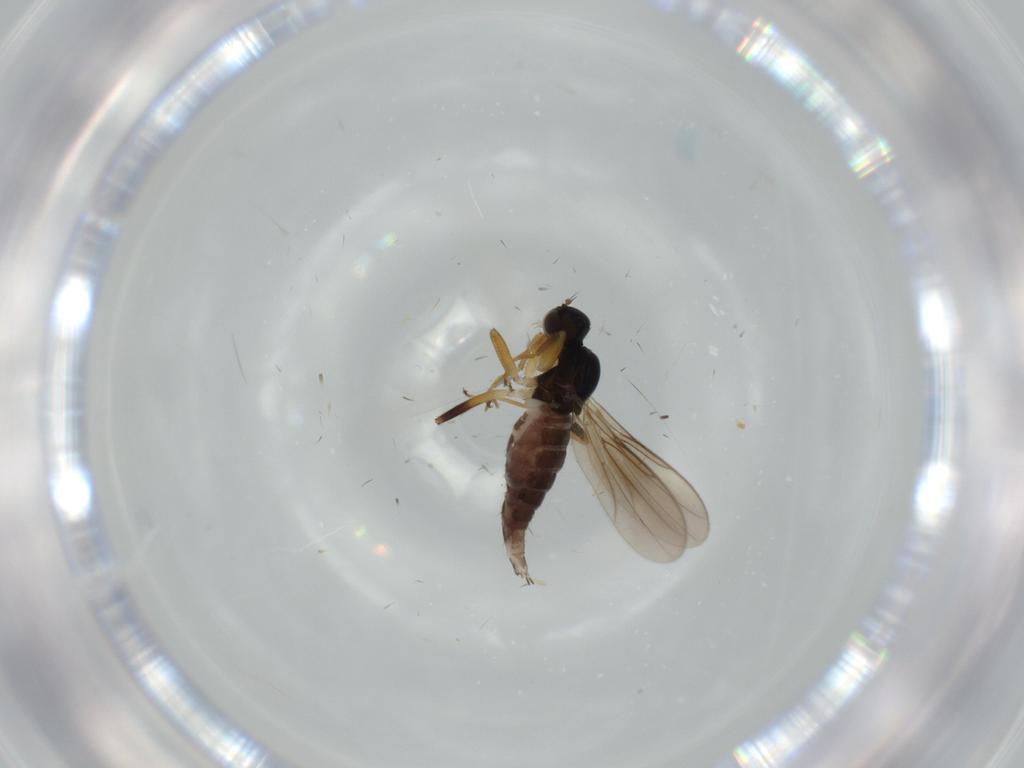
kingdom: Animalia
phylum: Arthropoda
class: Insecta
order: Diptera
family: Hybotidae
